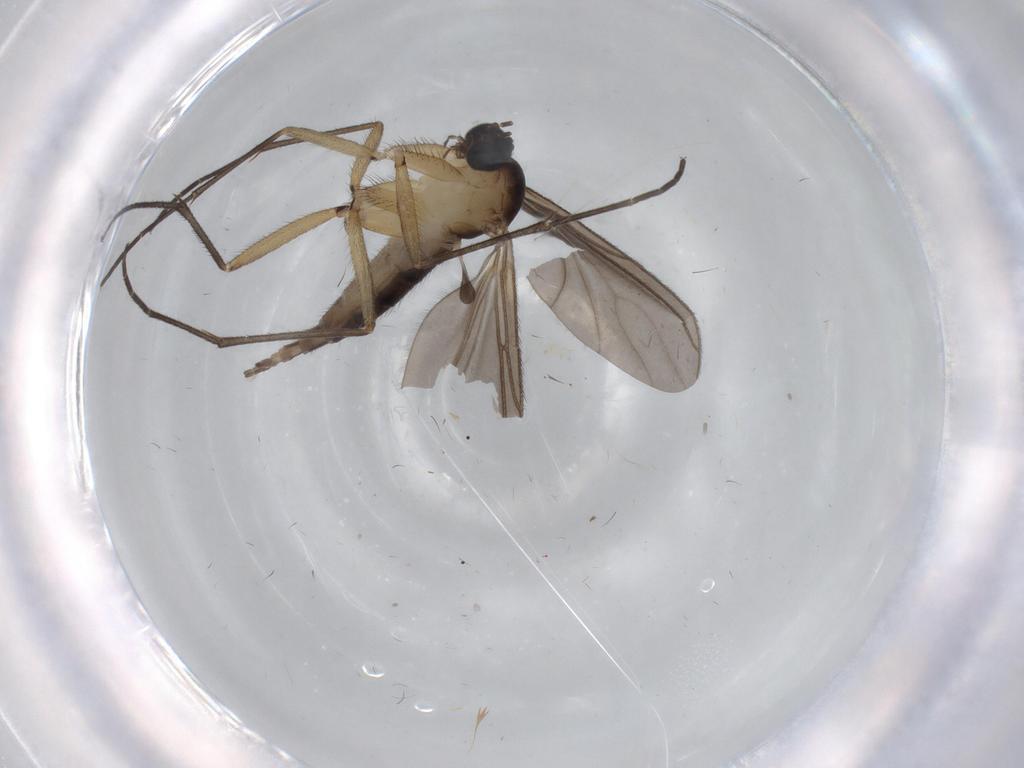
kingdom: Animalia
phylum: Arthropoda
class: Insecta
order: Diptera
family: Sciaridae
